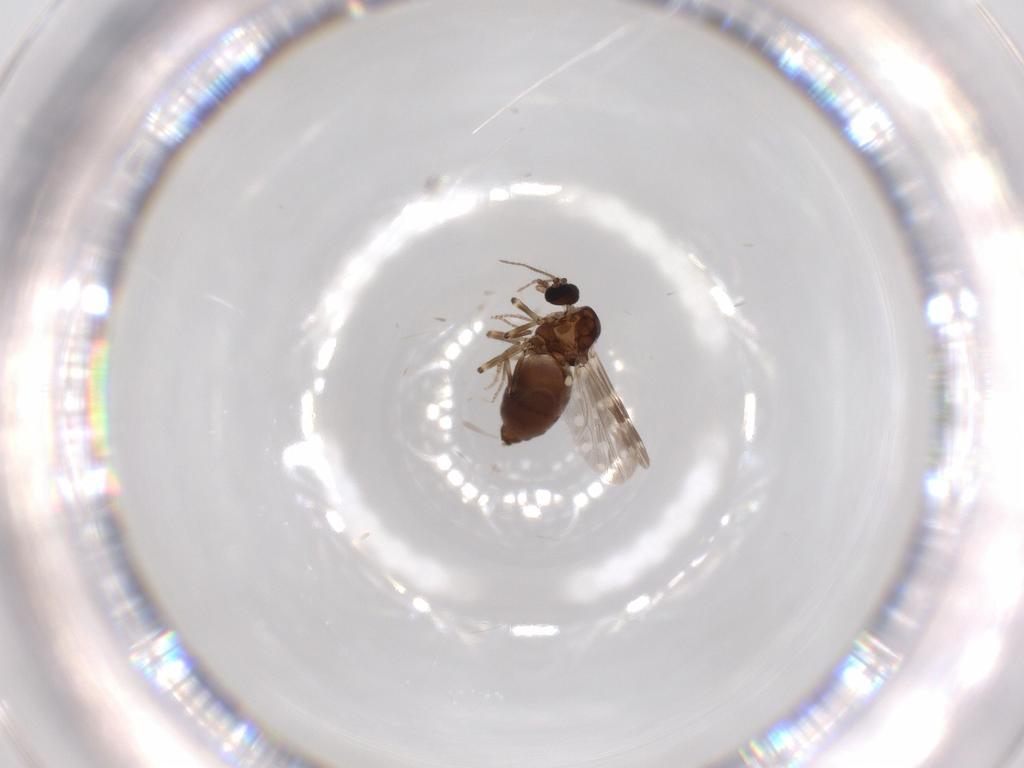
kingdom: Animalia
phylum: Arthropoda
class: Insecta
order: Diptera
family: Ceratopogonidae
